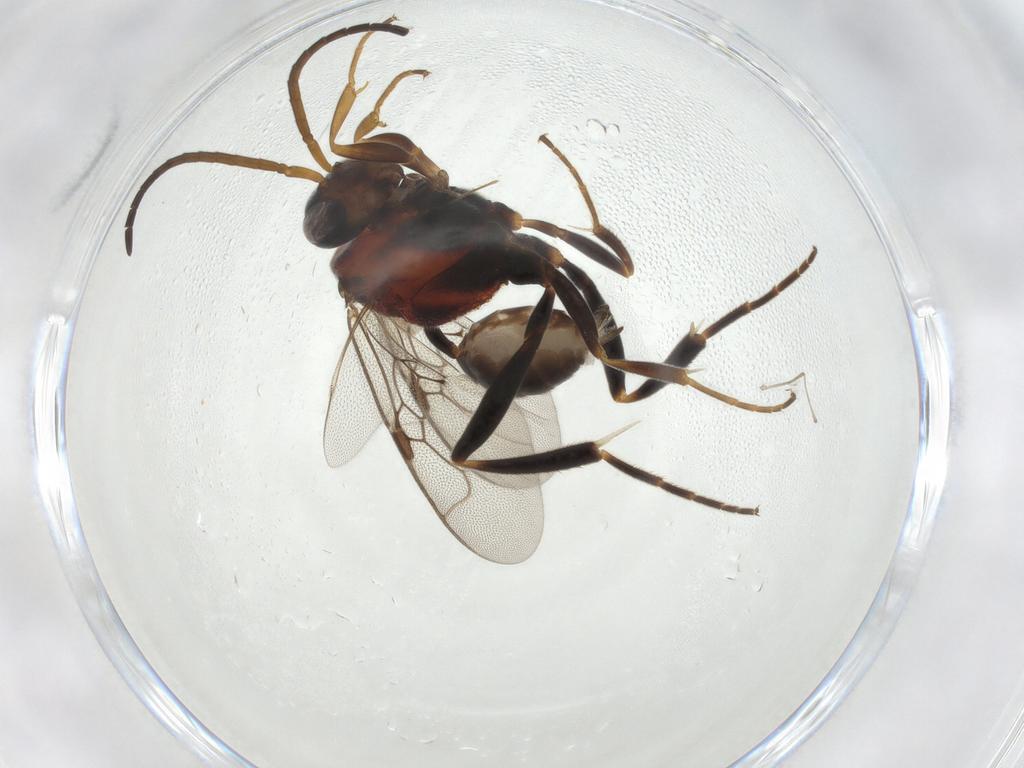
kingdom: Animalia
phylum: Arthropoda
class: Insecta
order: Hymenoptera
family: Evaniidae
